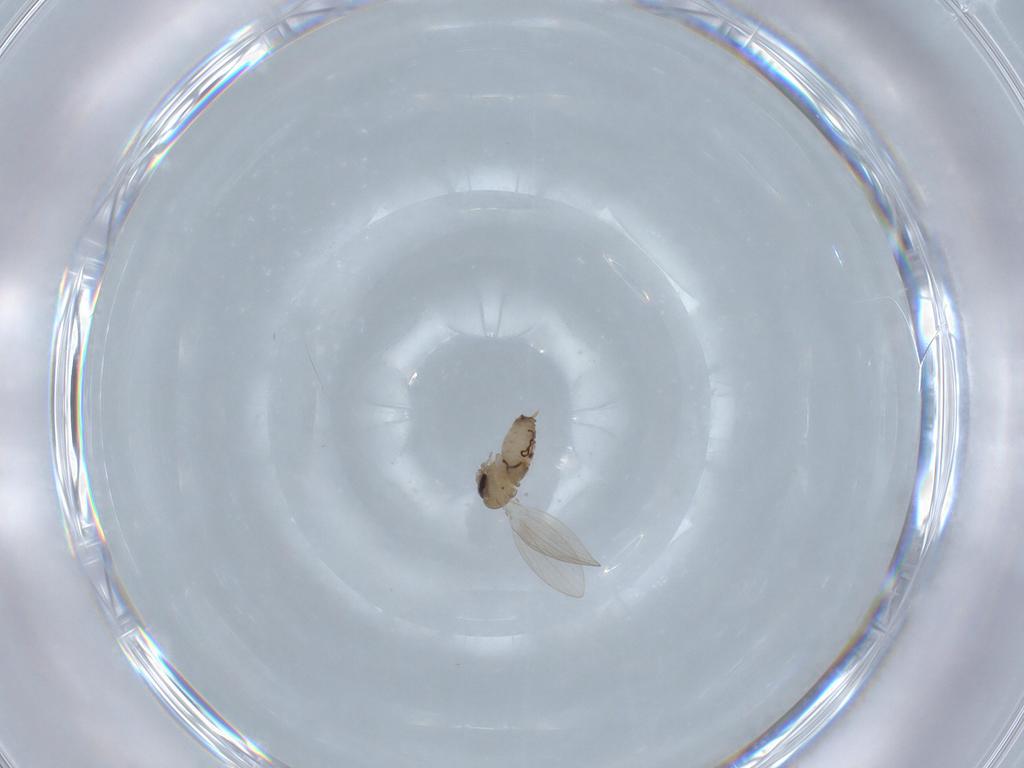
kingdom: Animalia
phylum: Arthropoda
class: Insecta
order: Diptera
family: Psychodidae
